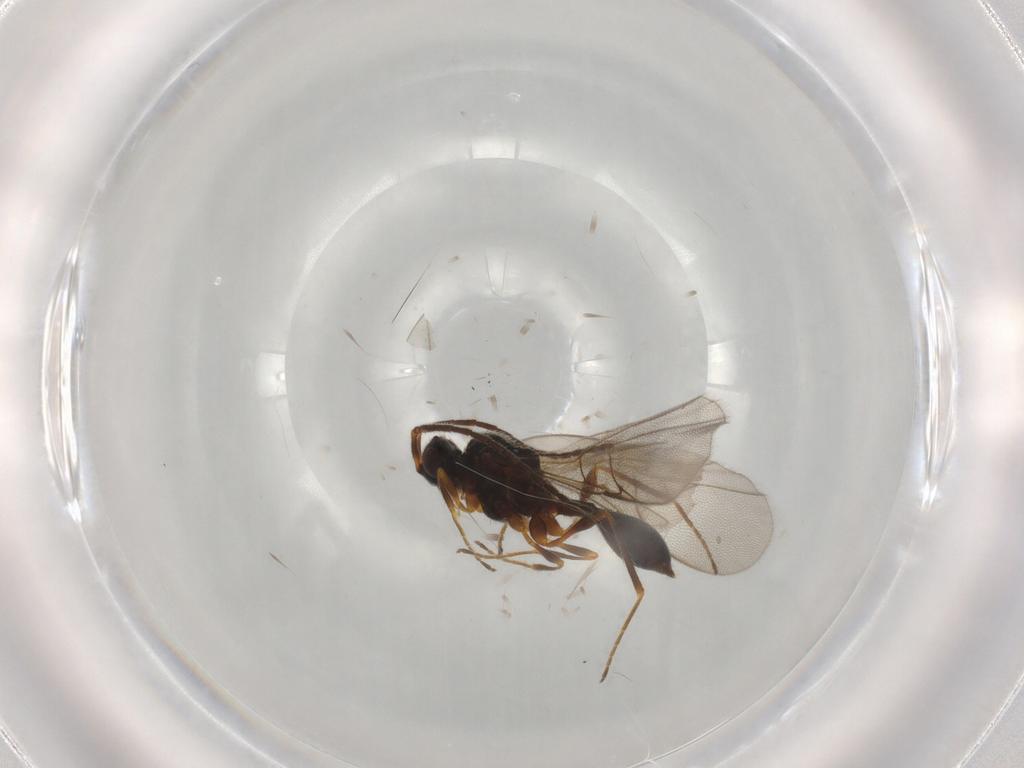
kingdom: Animalia
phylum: Arthropoda
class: Insecta
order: Hymenoptera
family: Diapriidae
